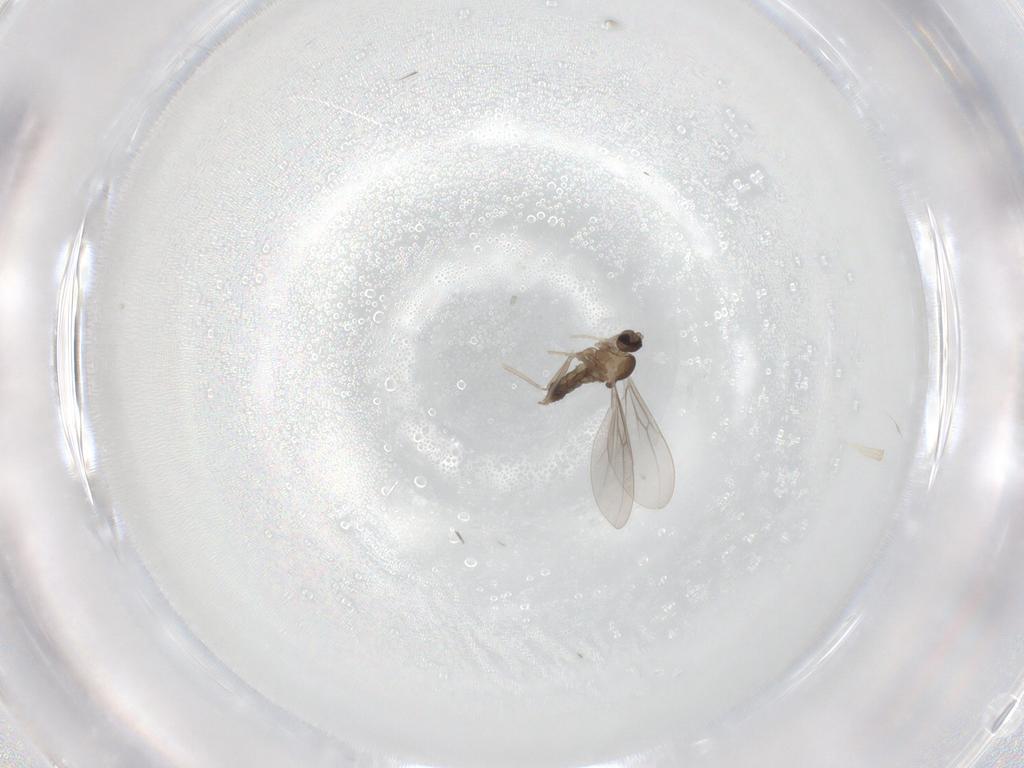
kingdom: Animalia
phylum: Arthropoda
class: Insecta
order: Diptera
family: Cecidomyiidae
